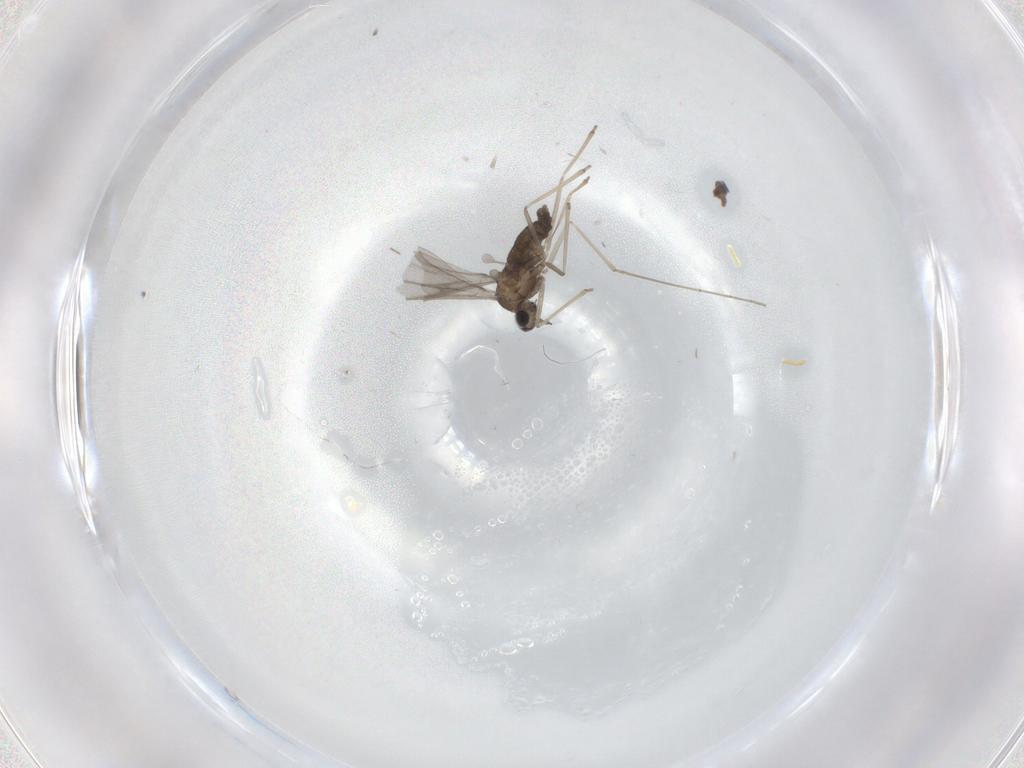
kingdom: Animalia
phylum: Arthropoda
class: Insecta
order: Diptera
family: Cecidomyiidae
